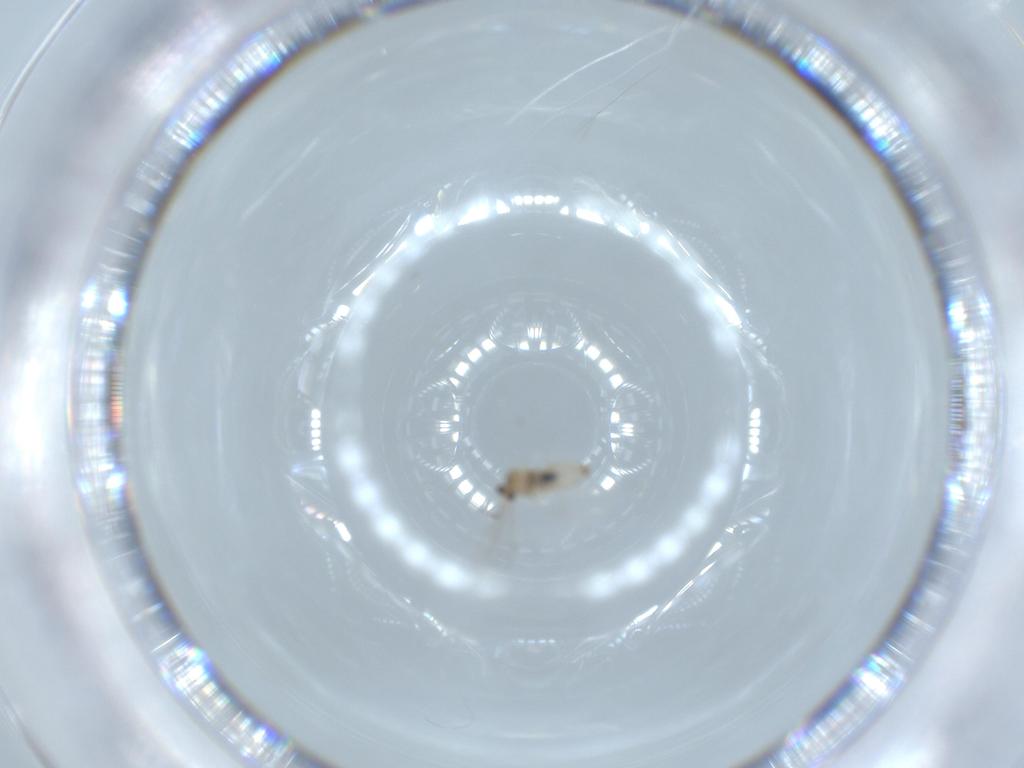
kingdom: Animalia
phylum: Arthropoda
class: Insecta
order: Diptera
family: Cecidomyiidae
